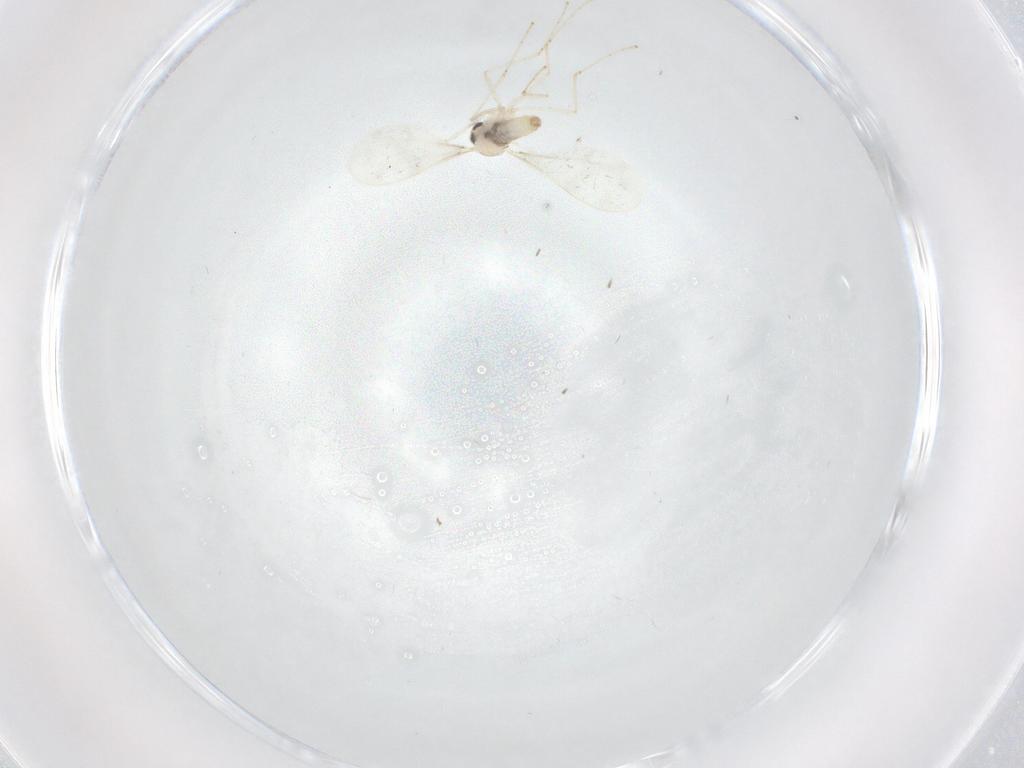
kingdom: Animalia
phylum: Arthropoda
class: Insecta
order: Diptera
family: Cecidomyiidae
